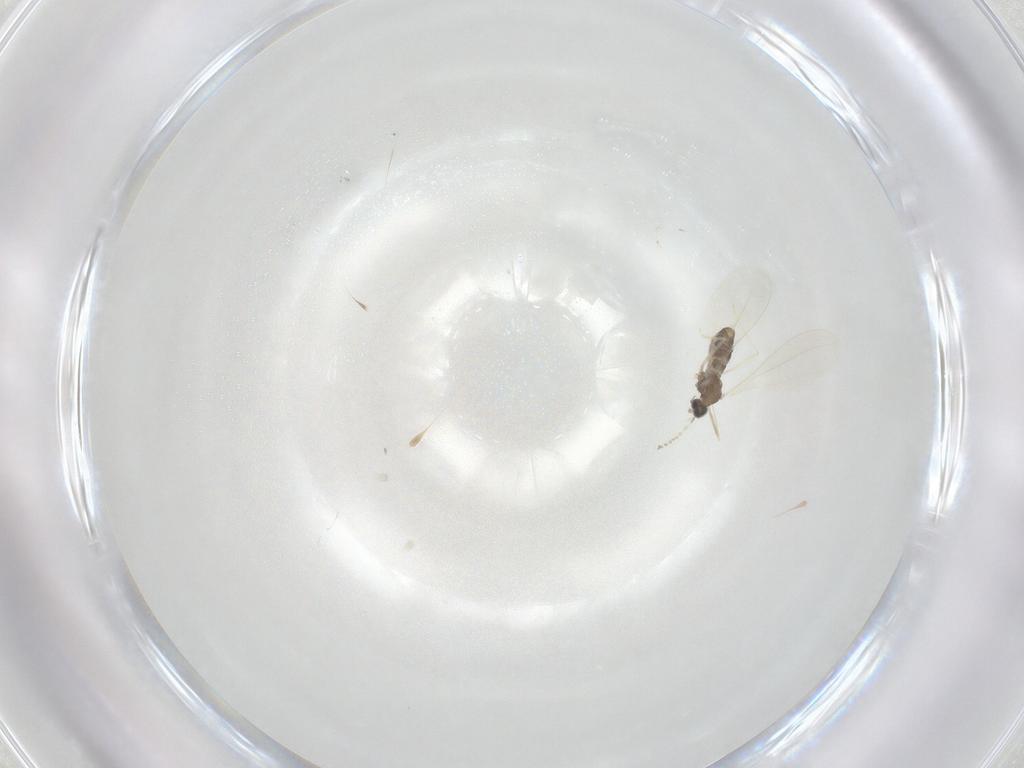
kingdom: Animalia
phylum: Arthropoda
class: Insecta
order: Diptera
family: Cecidomyiidae
